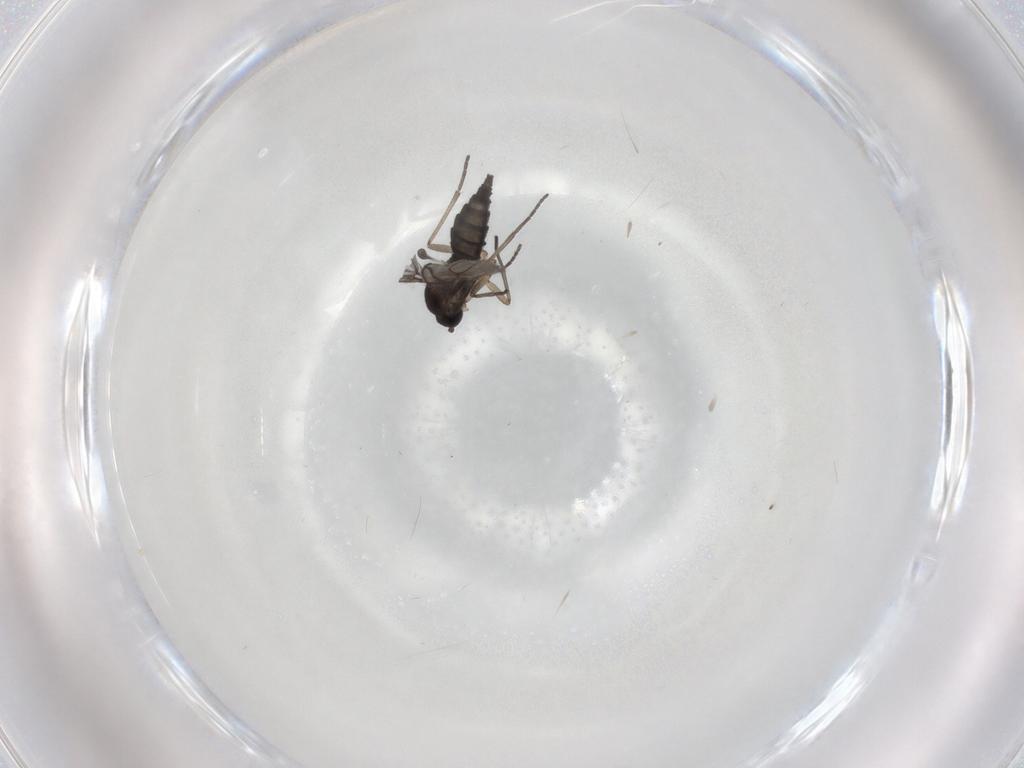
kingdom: Animalia
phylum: Arthropoda
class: Insecta
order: Diptera
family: Sciaridae
